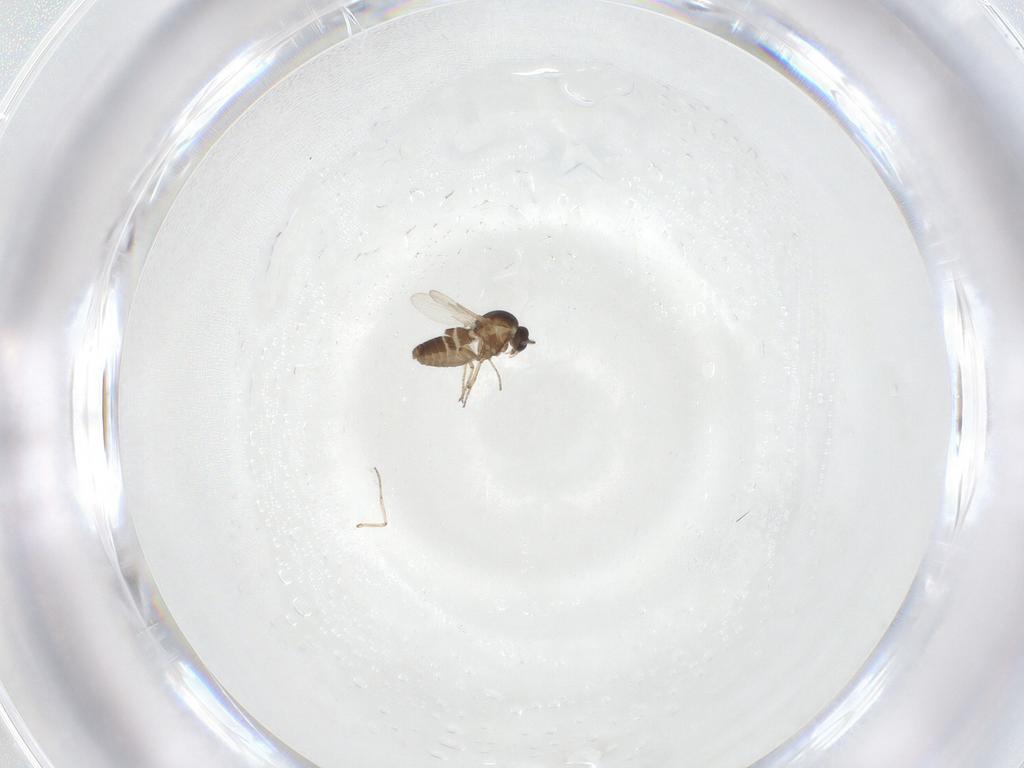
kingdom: Animalia
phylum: Arthropoda
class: Insecta
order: Diptera
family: Ceratopogonidae
